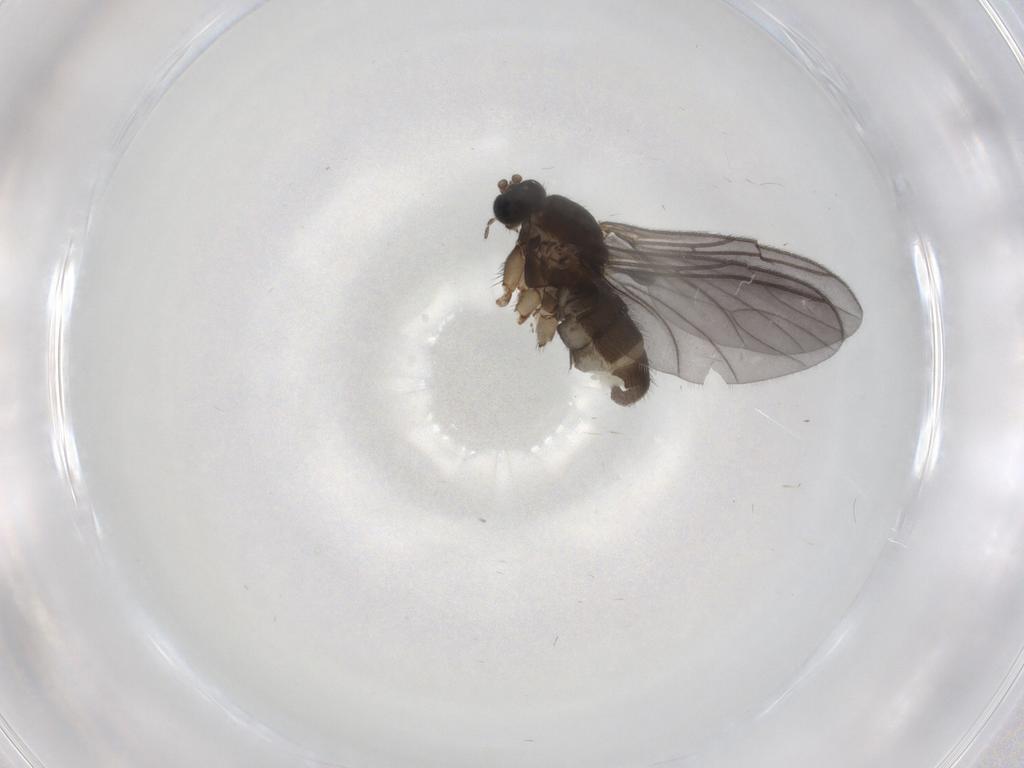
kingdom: Animalia
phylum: Arthropoda
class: Insecta
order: Diptera
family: Sciaridae
